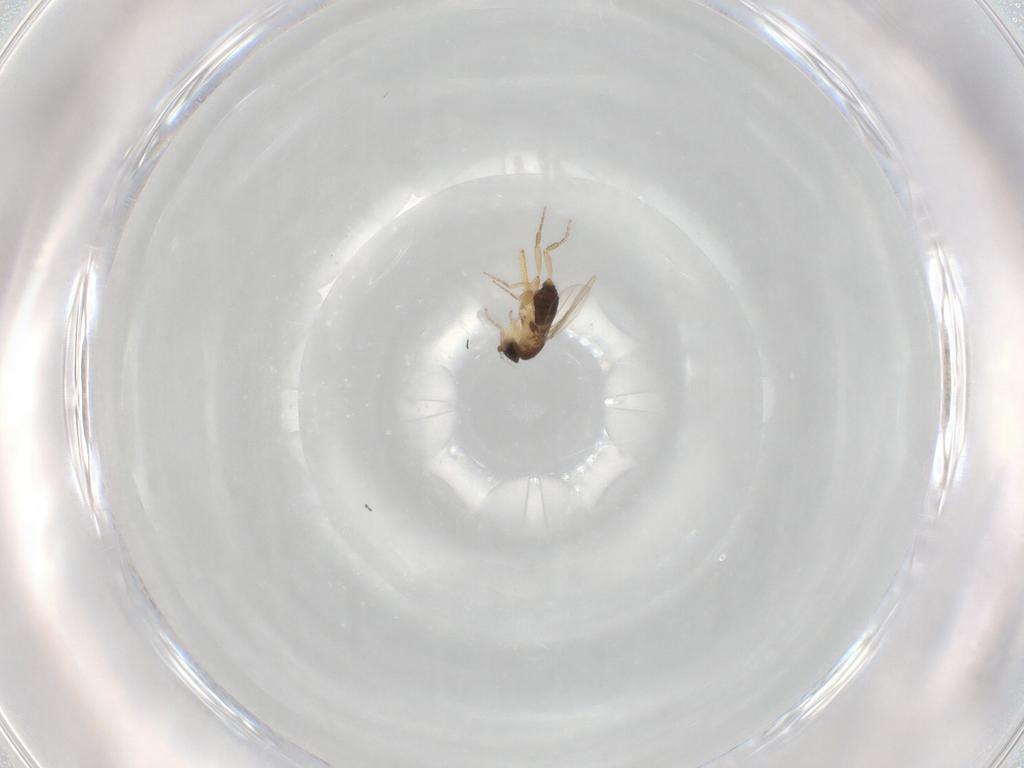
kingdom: Animalia
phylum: Arthropoda
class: Insecta
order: Diptera
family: Phoridae
